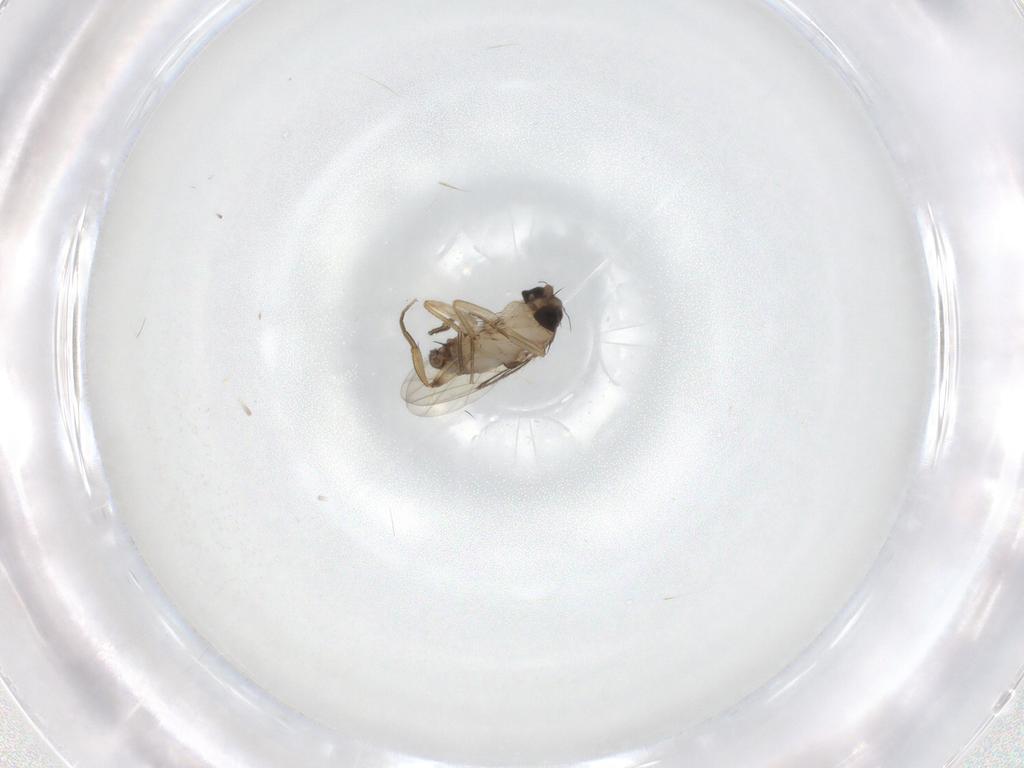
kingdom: Animalia
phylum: Arthropoda
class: Insecta
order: Diptera
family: Phoridae
